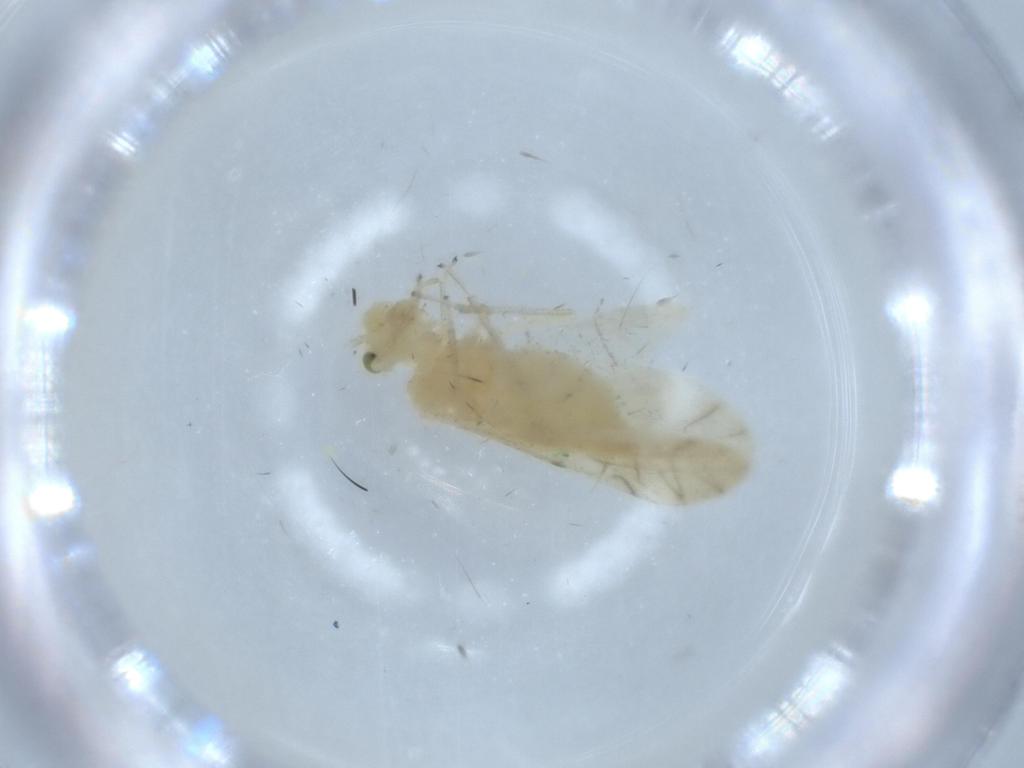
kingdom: Animalia
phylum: Arthropoda
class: Insecta
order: Psocodea
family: Caeciliusidae
